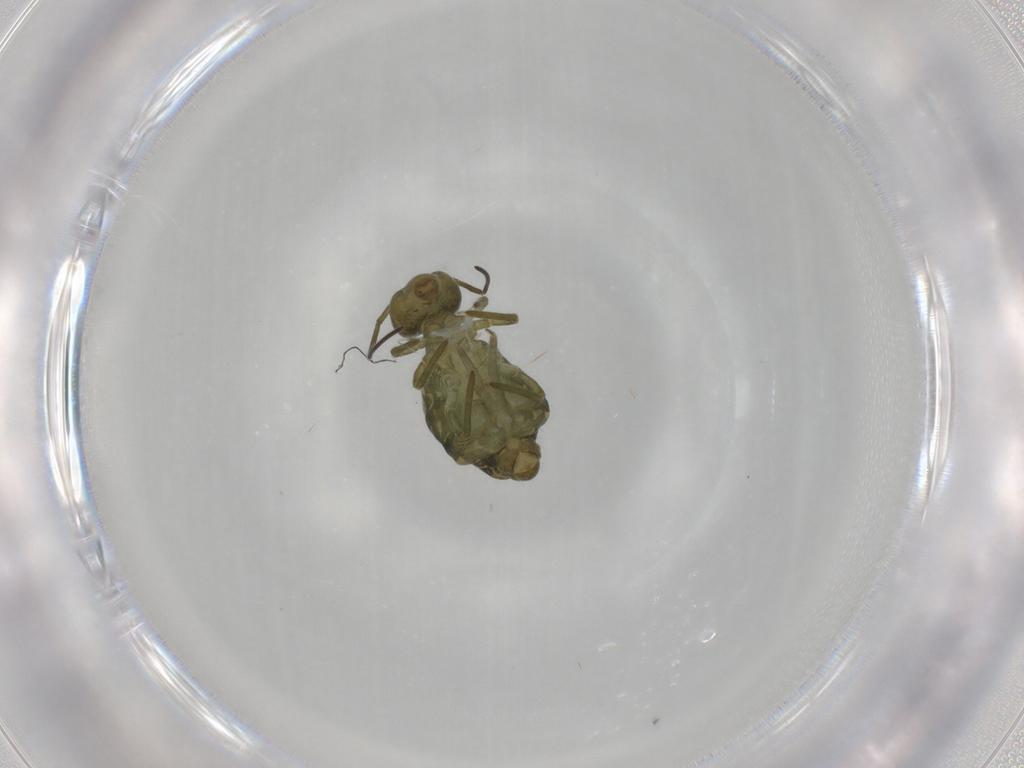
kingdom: Animalia
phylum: Arthropoda
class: Collembola
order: Symphypleona
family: Sminthuridae
